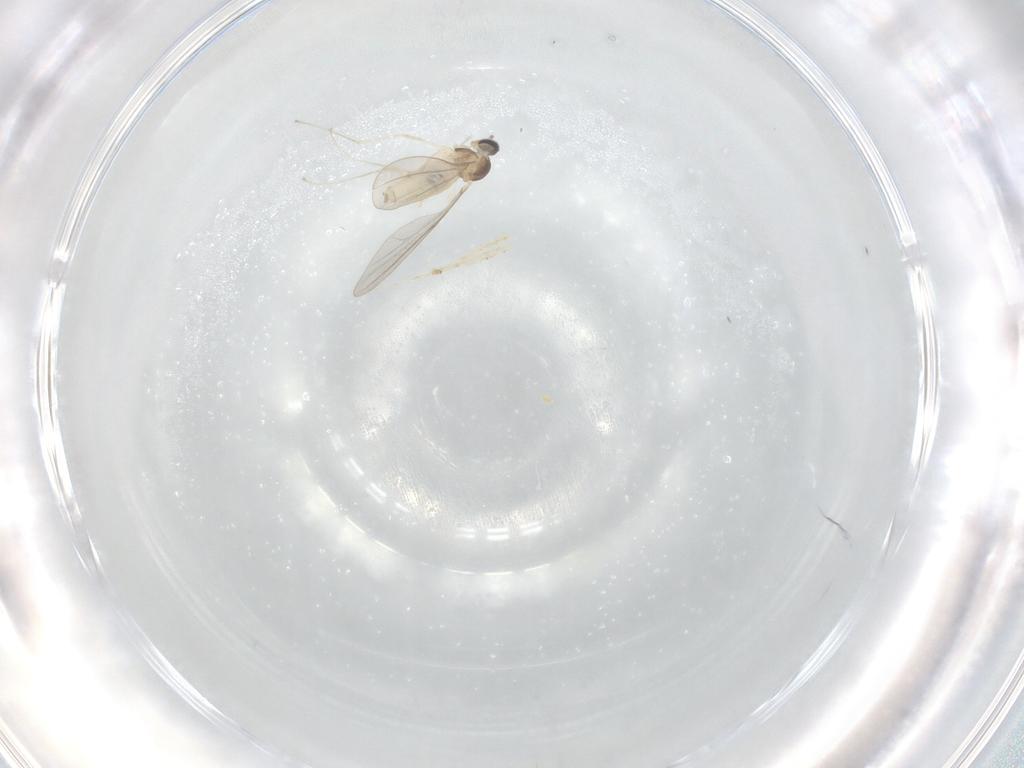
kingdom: Animalia
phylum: Arthropoda
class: Insecta
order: Diptera
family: Cecidomyiidae
